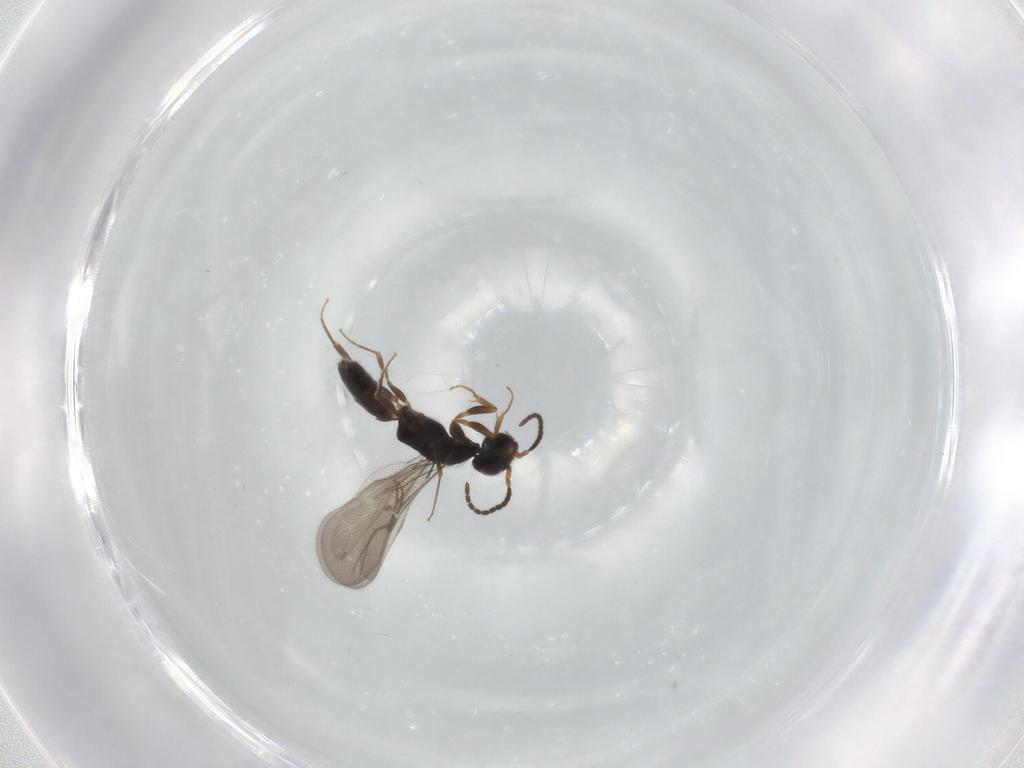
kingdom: Animalia
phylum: Arthropoda
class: Insecta
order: Hymenoptera
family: Bethylidae
